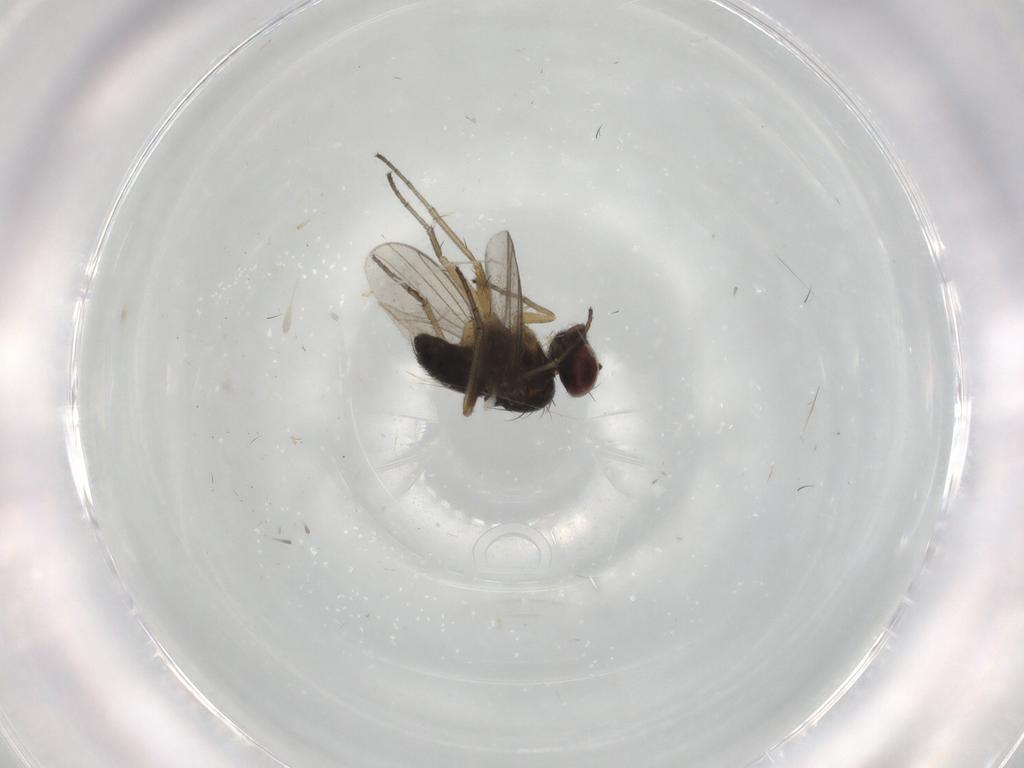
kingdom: Animalia
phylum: Arthropoda
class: Insecta
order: Diptera
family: Dolichopodidae
